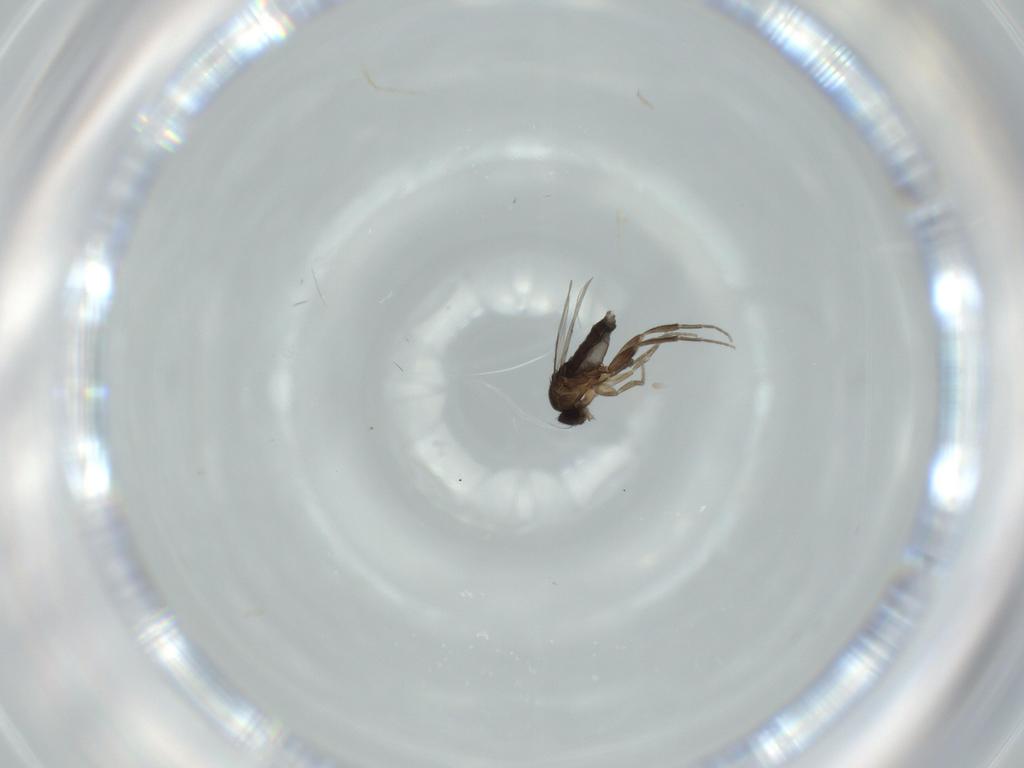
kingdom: Animalia
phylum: Arthropoda
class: Insecta
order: Diptera
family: Phoridae
